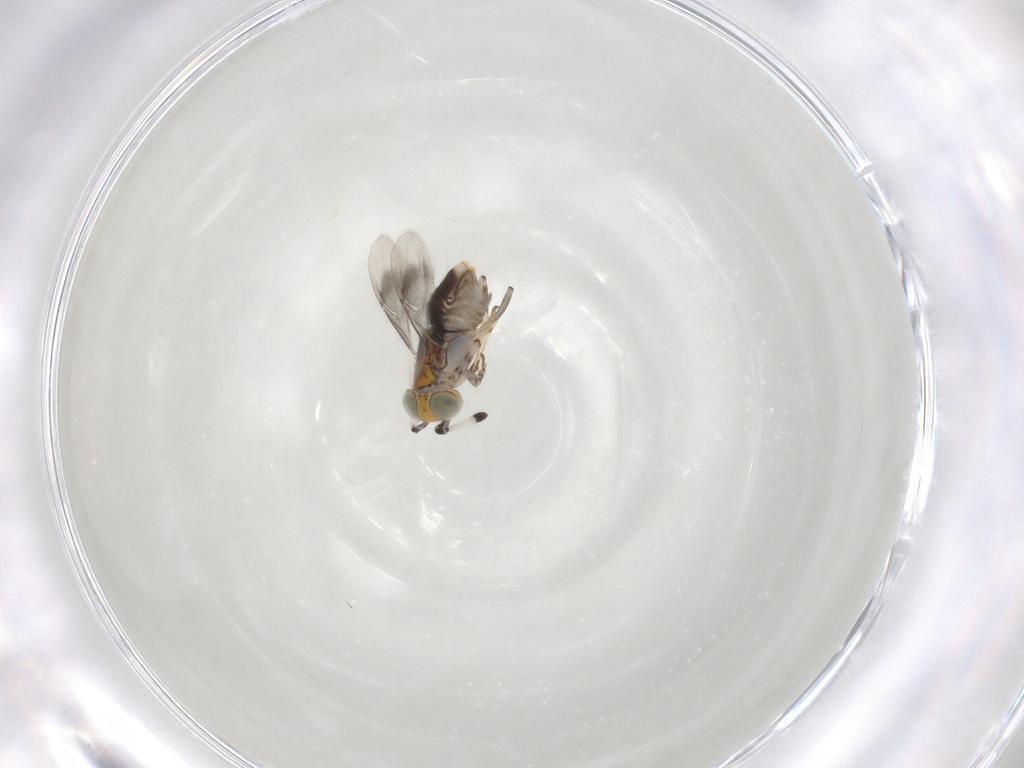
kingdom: Animalia
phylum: Arthropoda
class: Insecta
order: Hymenoptera
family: Encyrtidae
